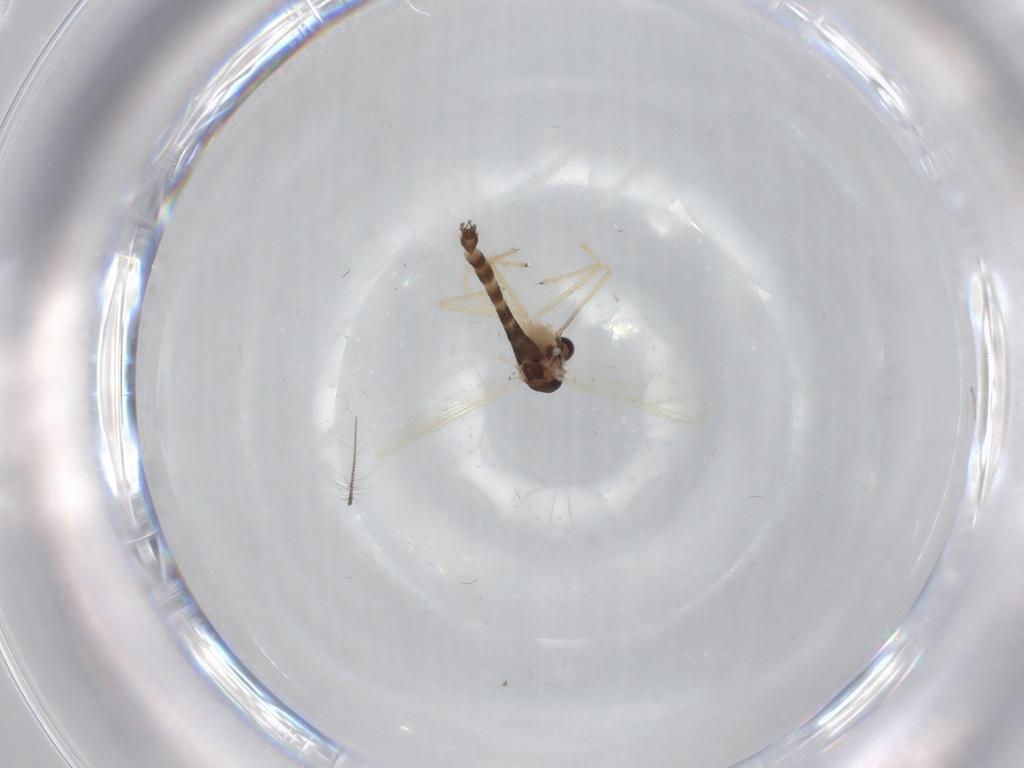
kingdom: Animalia
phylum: Arthropoda
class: Insecta
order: Diptera
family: Chironomidae
